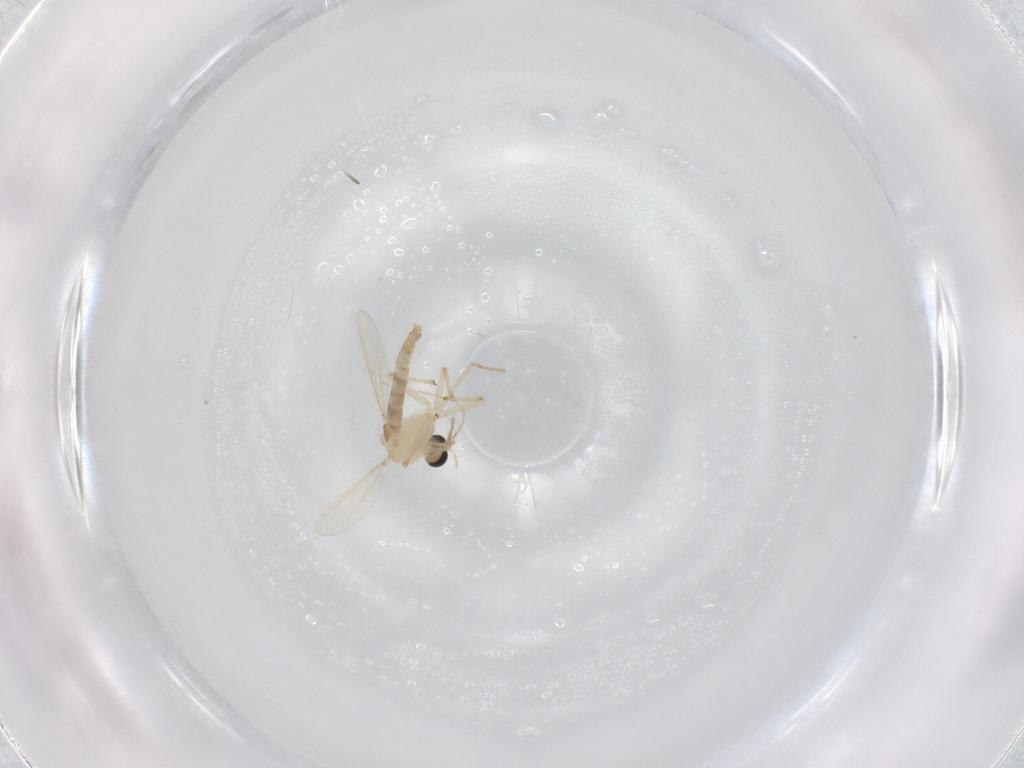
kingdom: Animalia
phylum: Arthropoda
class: Insecta
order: Diptera
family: Chironomidae
